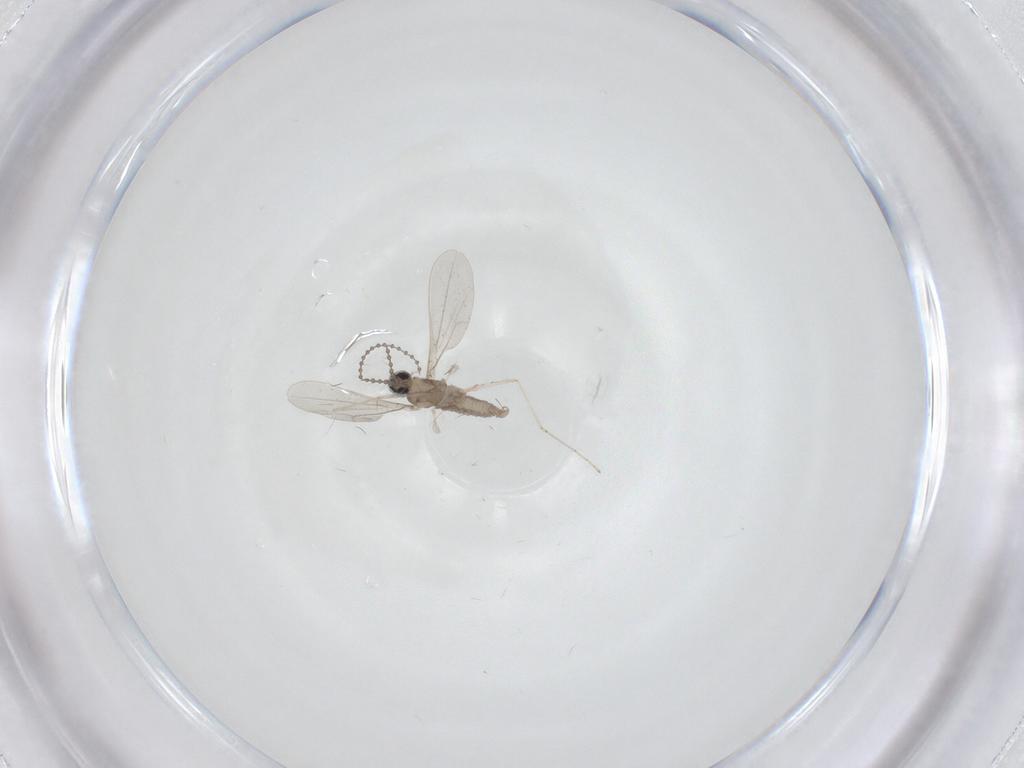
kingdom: Animalia
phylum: Arthropoda
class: Insecta
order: Diptera
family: Cecidomyiidae
